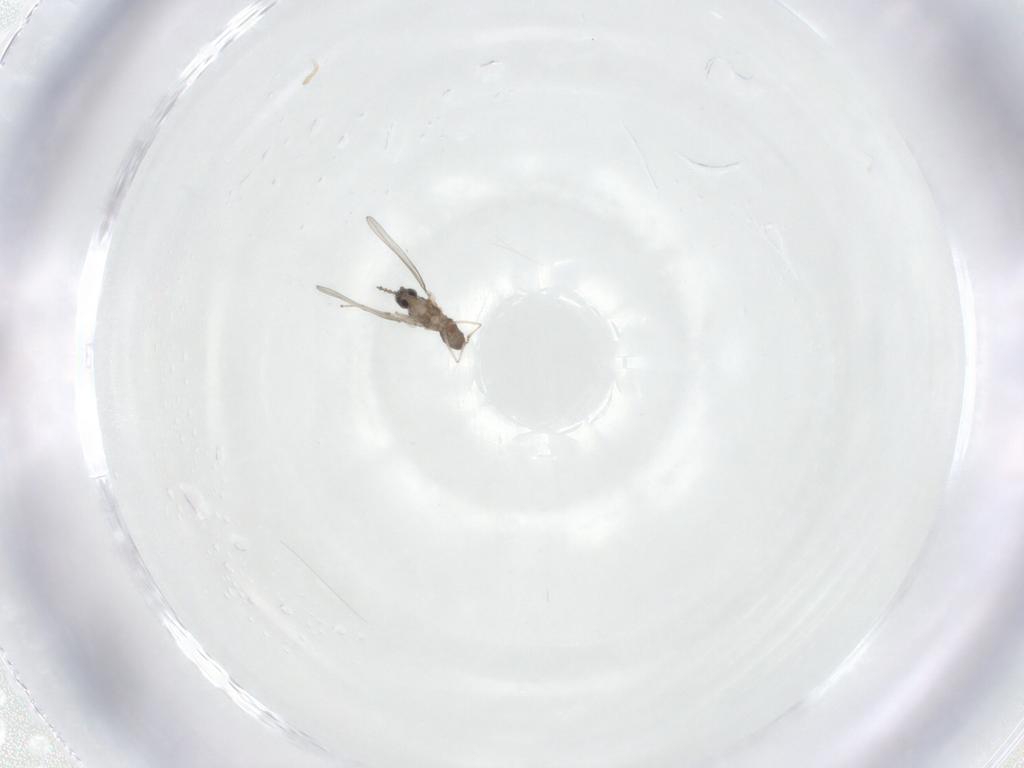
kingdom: Animalia
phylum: Arthropoda
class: Insecta
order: Diptera
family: Cecidomyiidae
